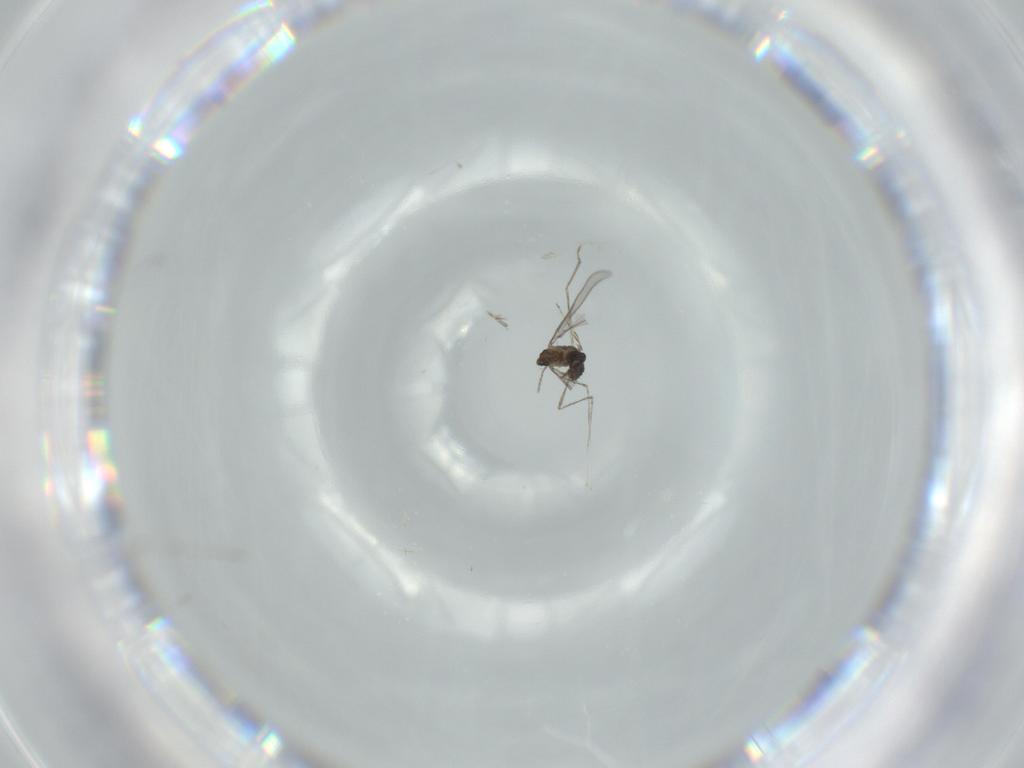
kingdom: Animalia
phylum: Arthropoda
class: Insecta
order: Diptera
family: Cecidomyiidae
